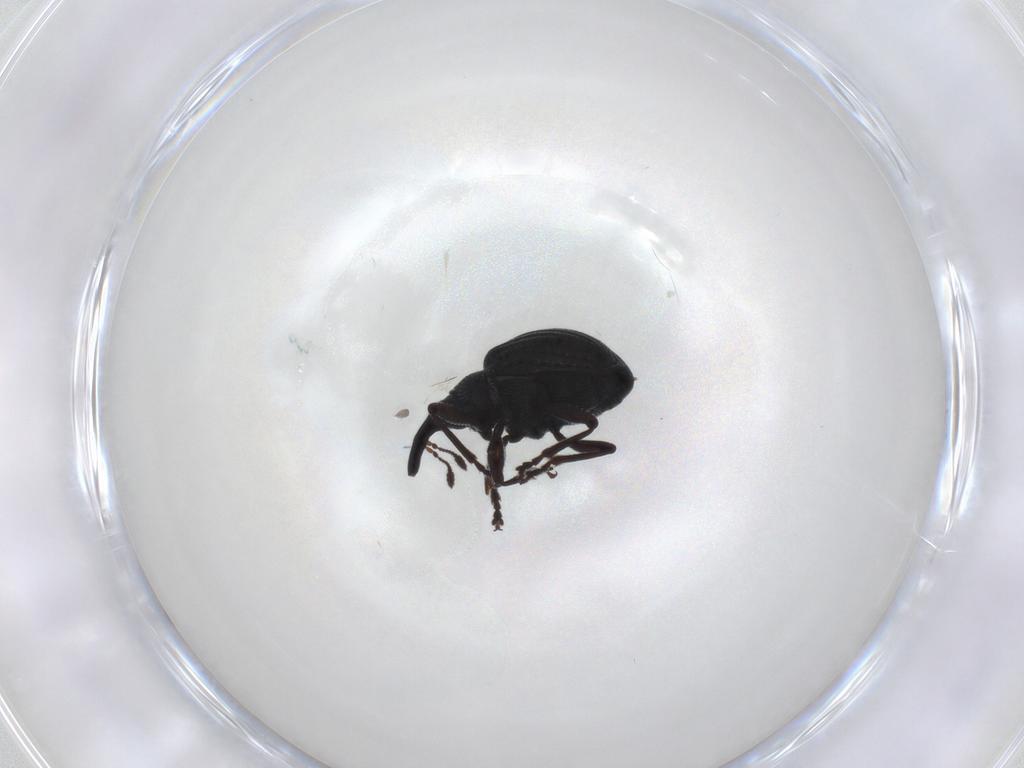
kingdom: Animalia
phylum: Arthropoda
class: Insecta
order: Coleoptera
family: Brentidae
